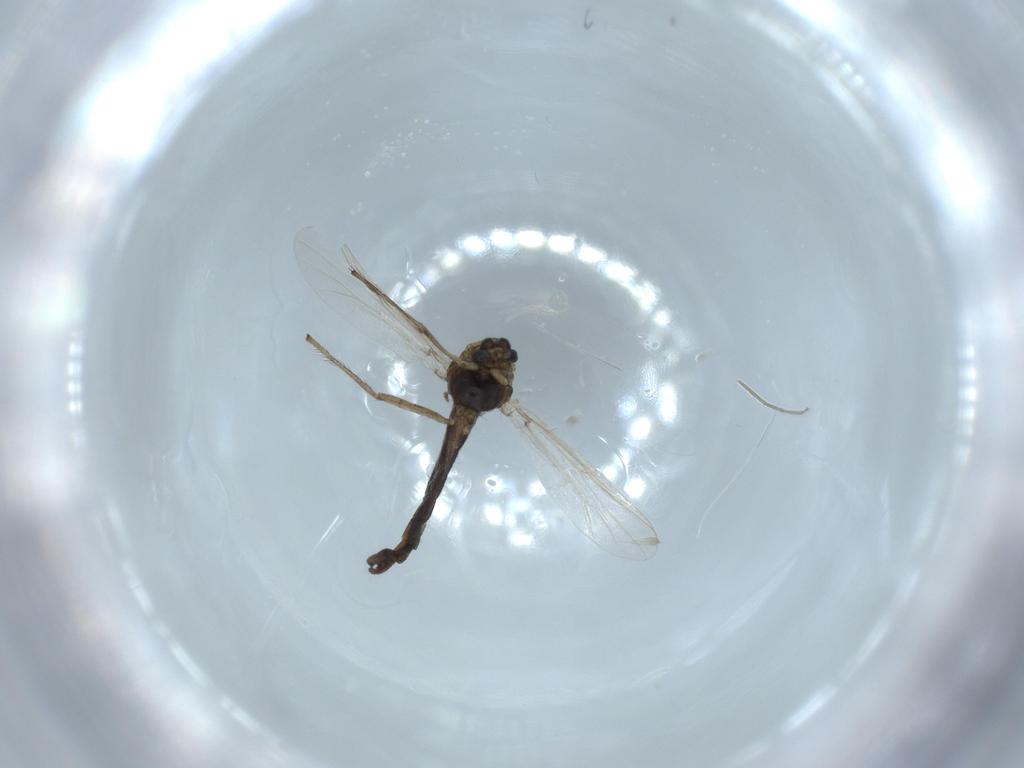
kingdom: Animalia
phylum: Arthropoda
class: Insecta
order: Diptera
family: Chironomidae
